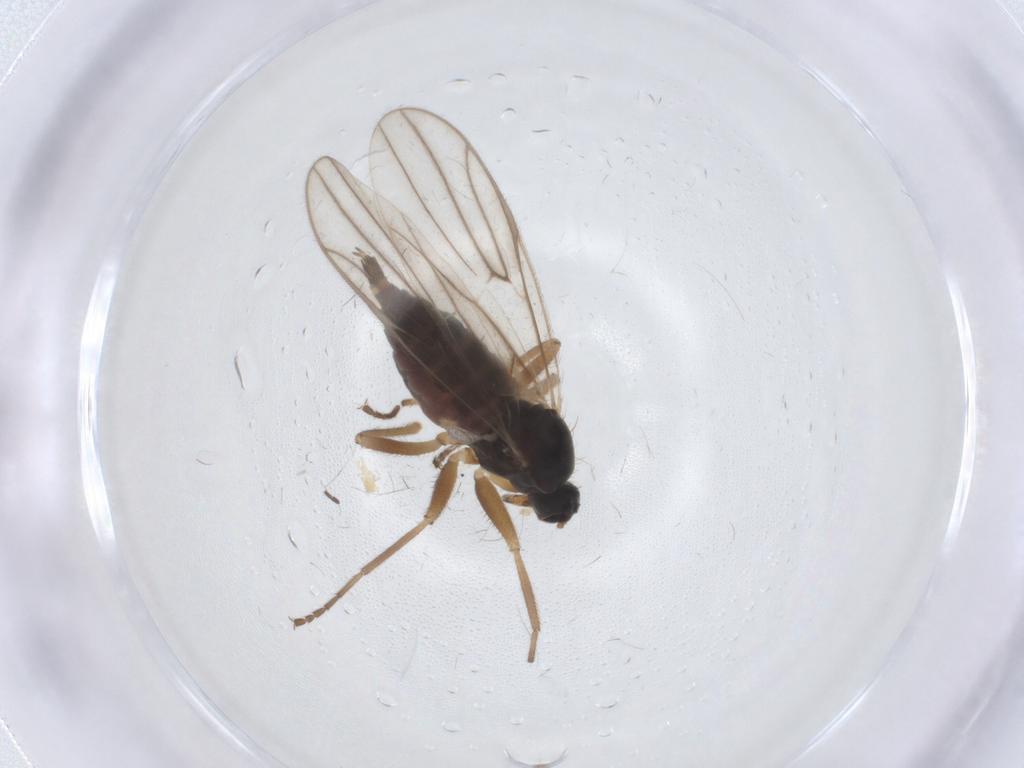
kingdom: Animalia
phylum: Arthropoda
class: Insecta
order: Diptera
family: Hybotidae
